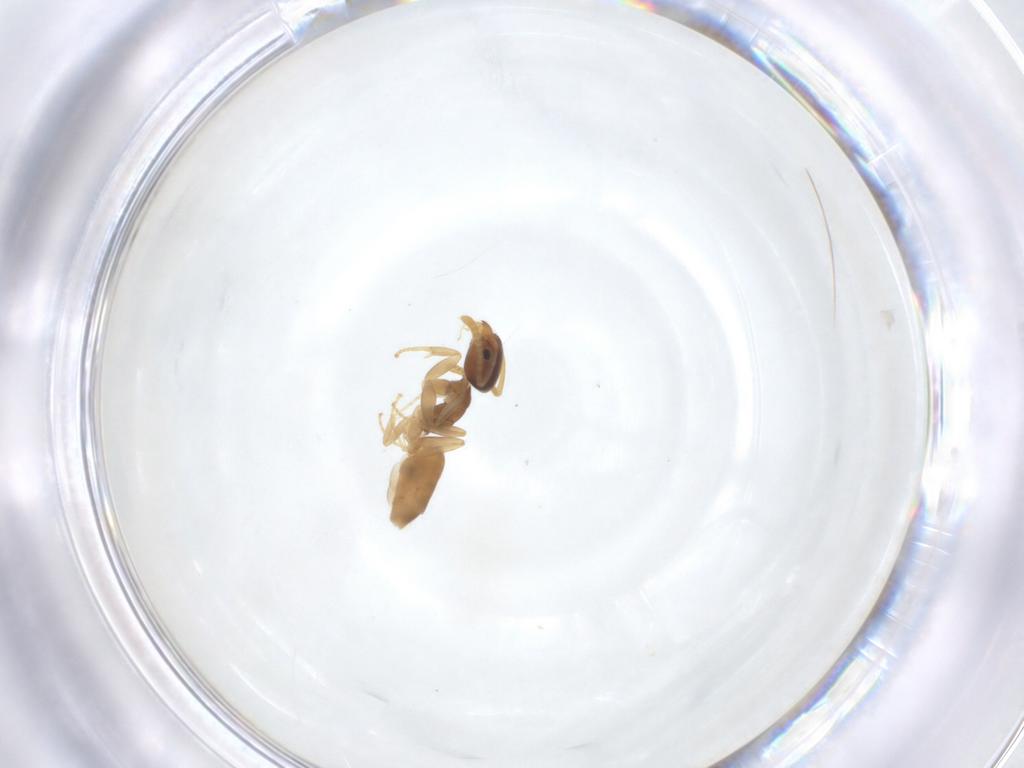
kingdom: Animalia
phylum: Arthropoda
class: Insecta
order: Hymenoptera
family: Formicidae
